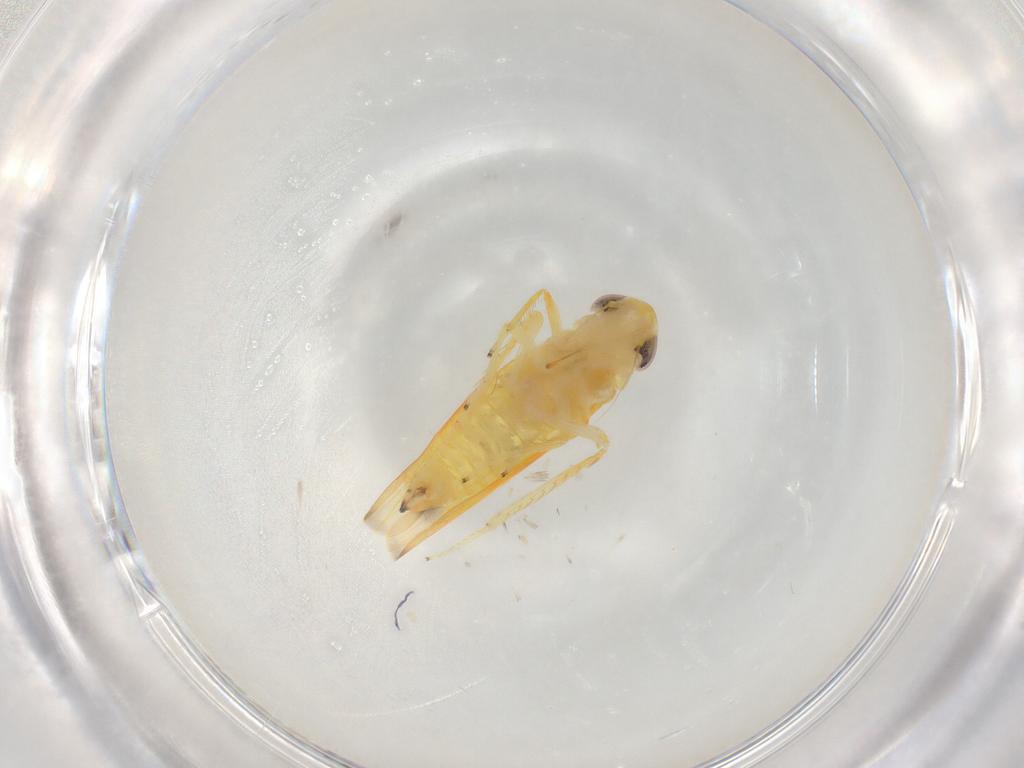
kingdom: Animalia
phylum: Arthropoda
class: Insecta
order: Hemiptera
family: Cicadellidae
